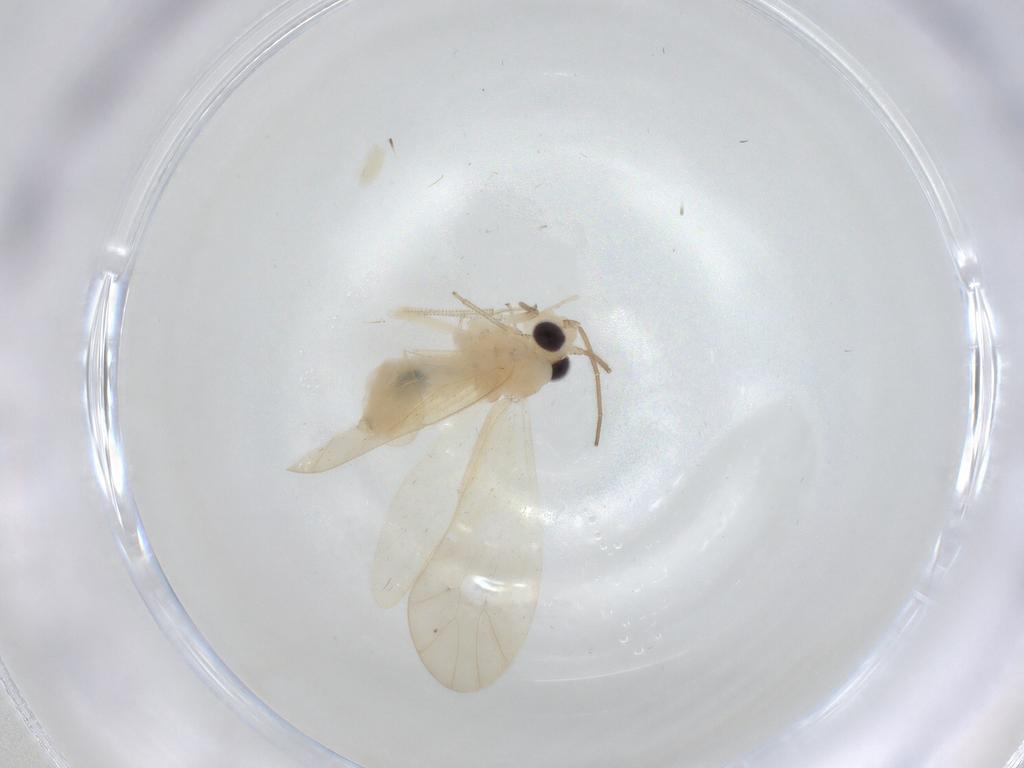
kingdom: Animalia
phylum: Arthropoda
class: Insecta
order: Psocodea
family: Caeciliusidae
